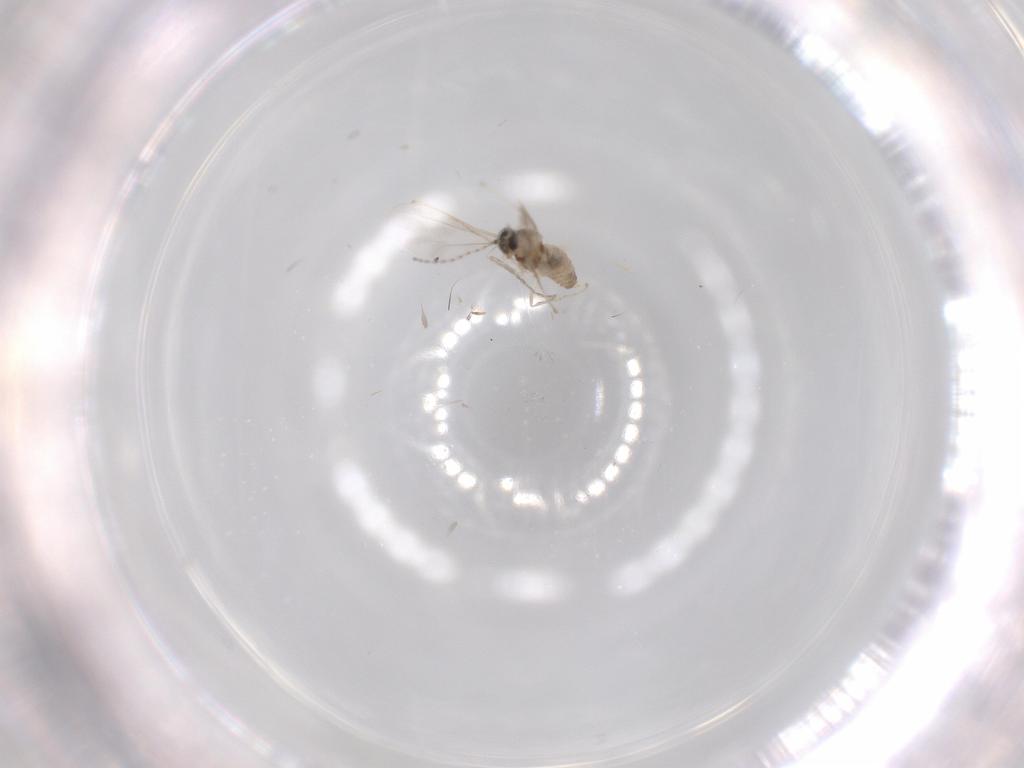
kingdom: Animalia
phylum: Arthropoda
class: Insecta
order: Diptera
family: Cecidomyiidae
